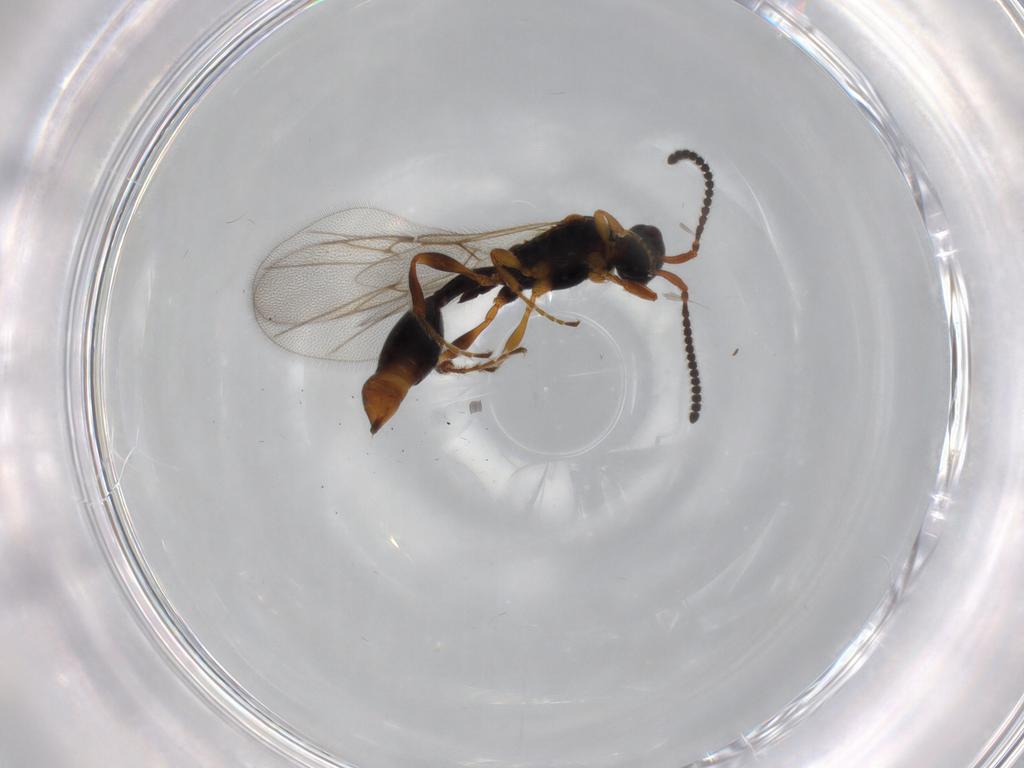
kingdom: Animalia
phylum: Arthropoda
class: Insecta
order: Hymenoptera
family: Diapriidae
